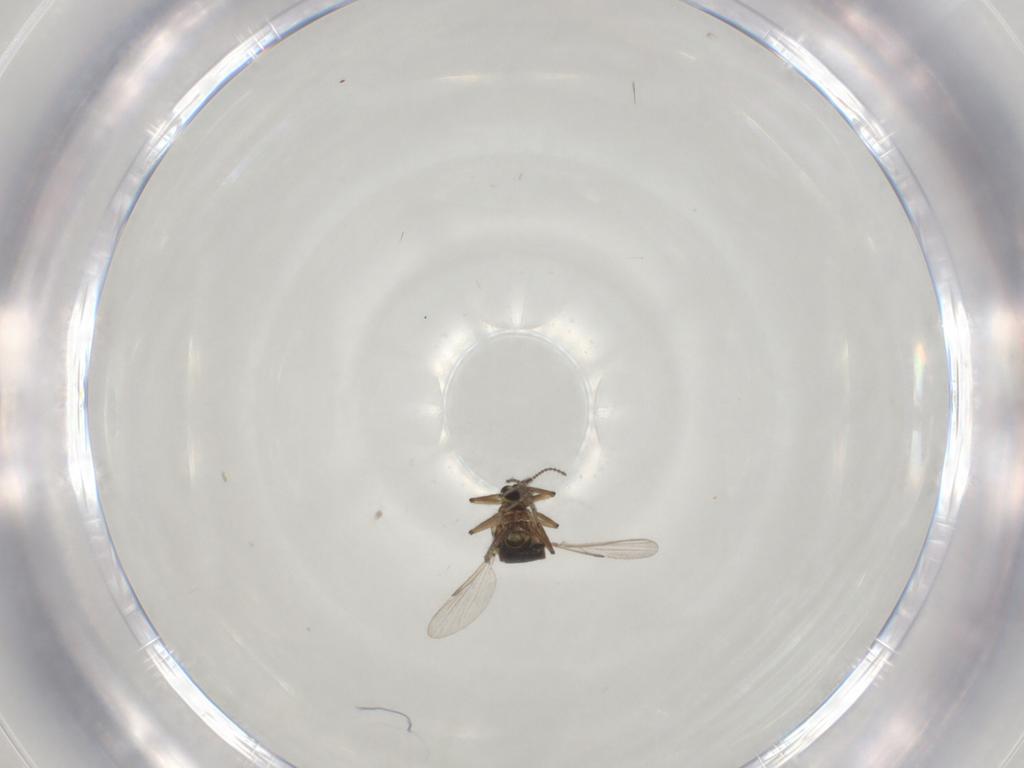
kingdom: Animalia
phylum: Arthropoda
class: Insecta
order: Diptera
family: Ceratopogonidae
